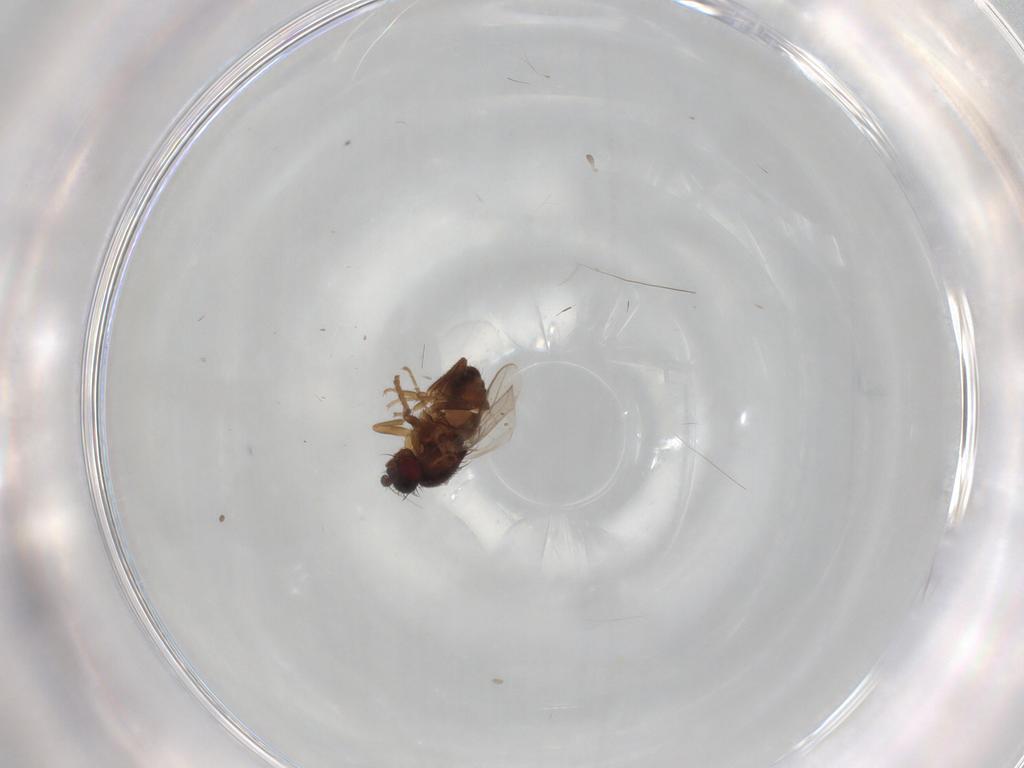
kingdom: Animalia
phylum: Arthropoda
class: Insecta
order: Diptera
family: Sphaeroceridae
